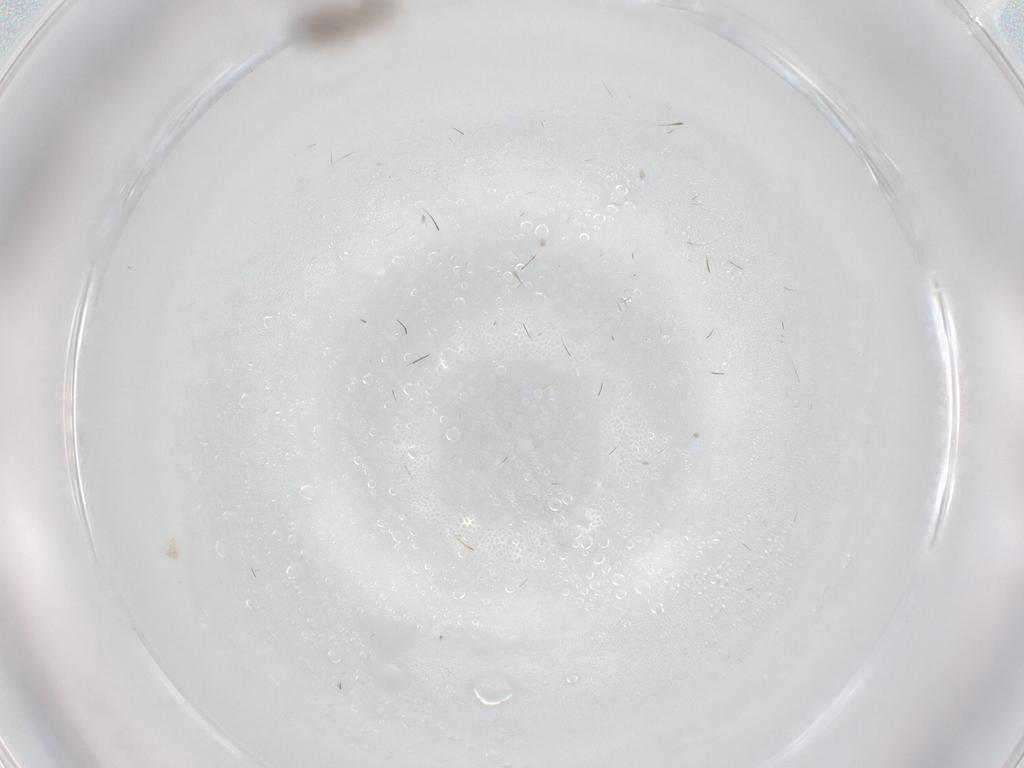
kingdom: Animalia
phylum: Arthropoda
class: Insecta
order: Hymenoptera
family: Formicidae
